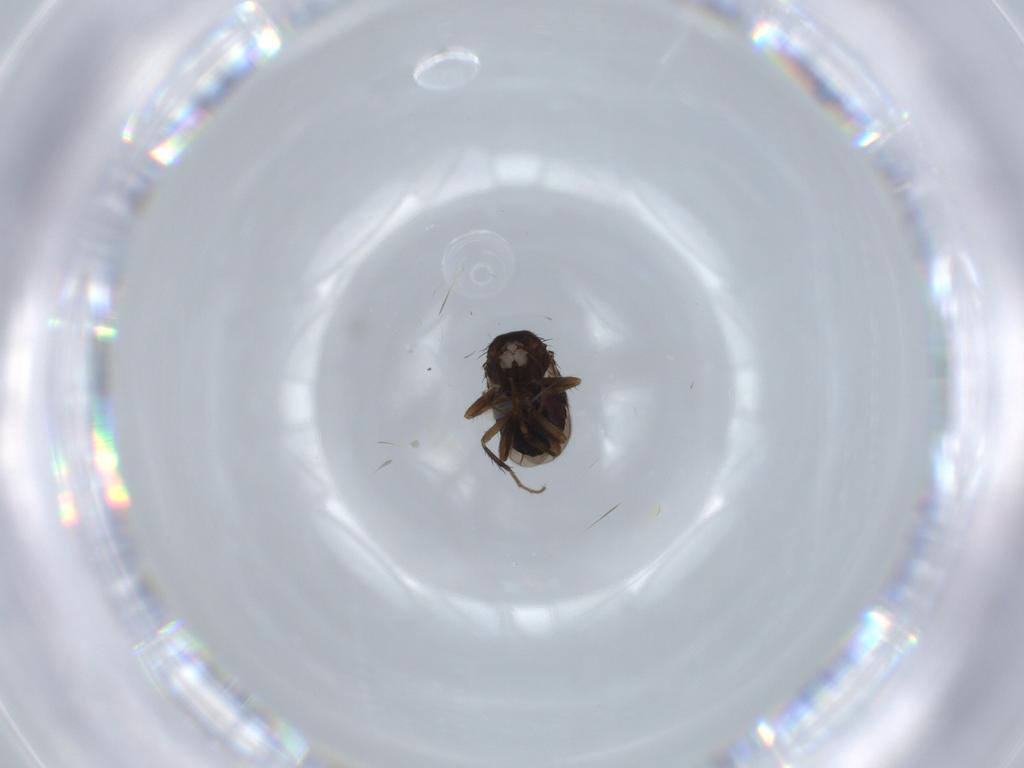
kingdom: Animalia
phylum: Arthropoda
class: Insecta
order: Diptera
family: Sphaeroceridae
